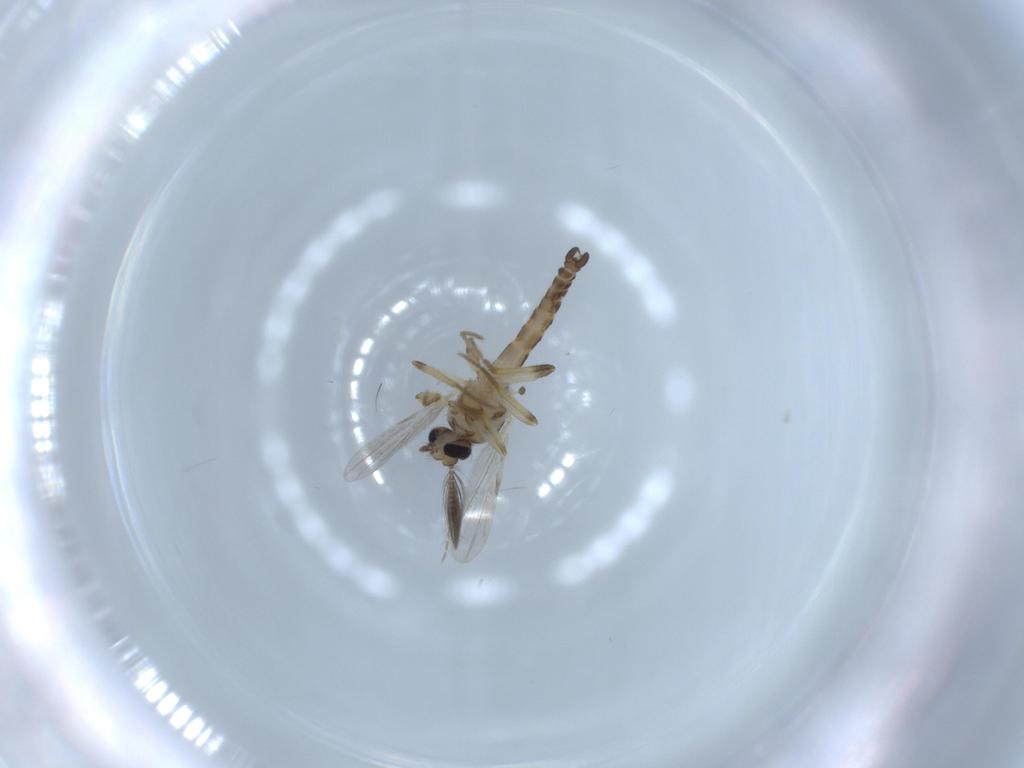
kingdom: Animalia
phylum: Arthropoda
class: Insecta
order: Diptera
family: Ceratopogonidae
